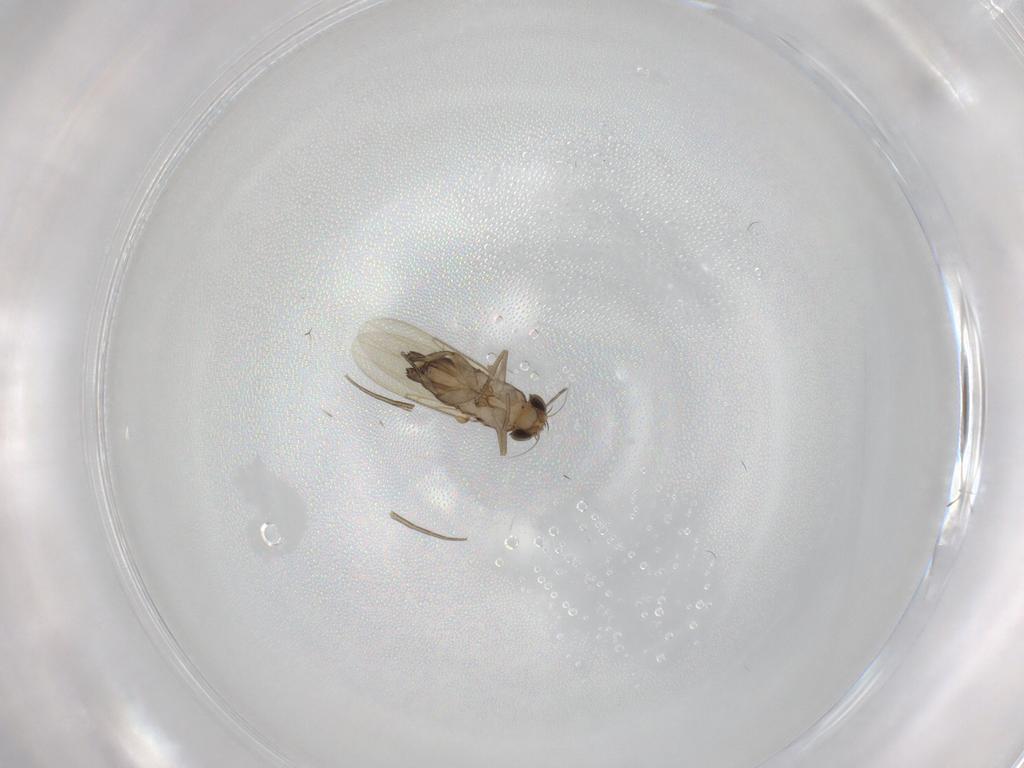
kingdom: Animalia
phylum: Arthropoda
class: Insecta
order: Diptera
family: Phoridae
